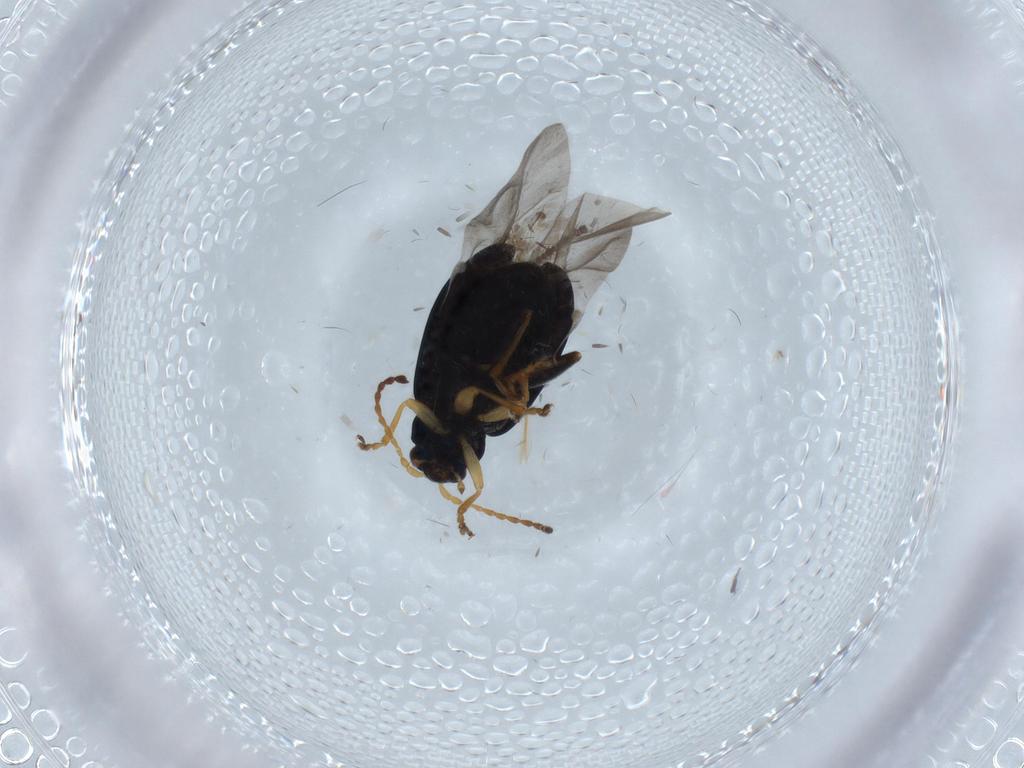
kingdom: Animalia
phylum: Arthropoda
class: Insecta
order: Coleoptera
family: Chrysomelidae
